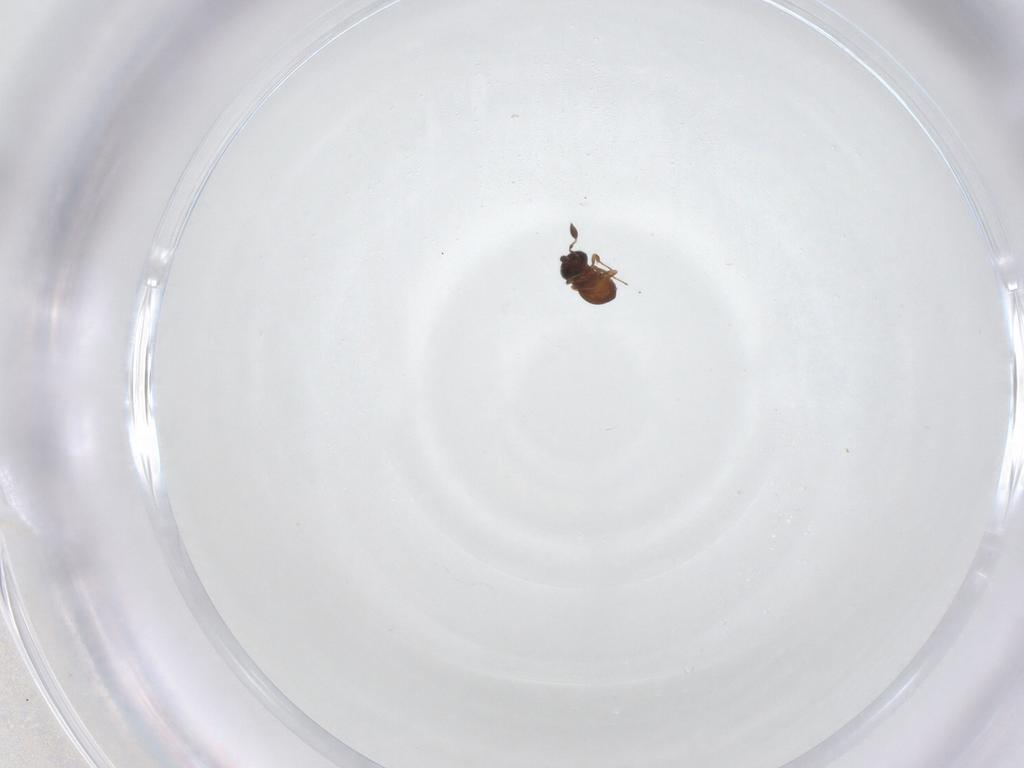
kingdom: Animalia
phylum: Arthropoda
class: Insecta
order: Hymenoptera
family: Scelionidae
